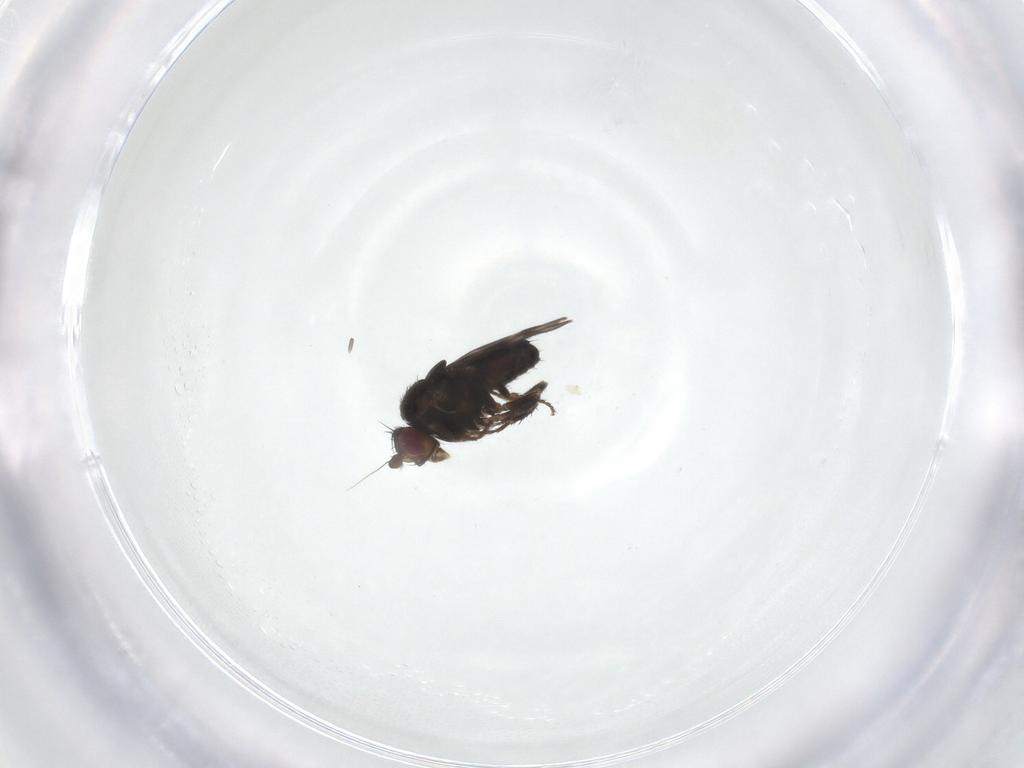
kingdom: Animalia
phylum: Arthropoda
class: Insecta
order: Diptera
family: Sphaeroceridae
